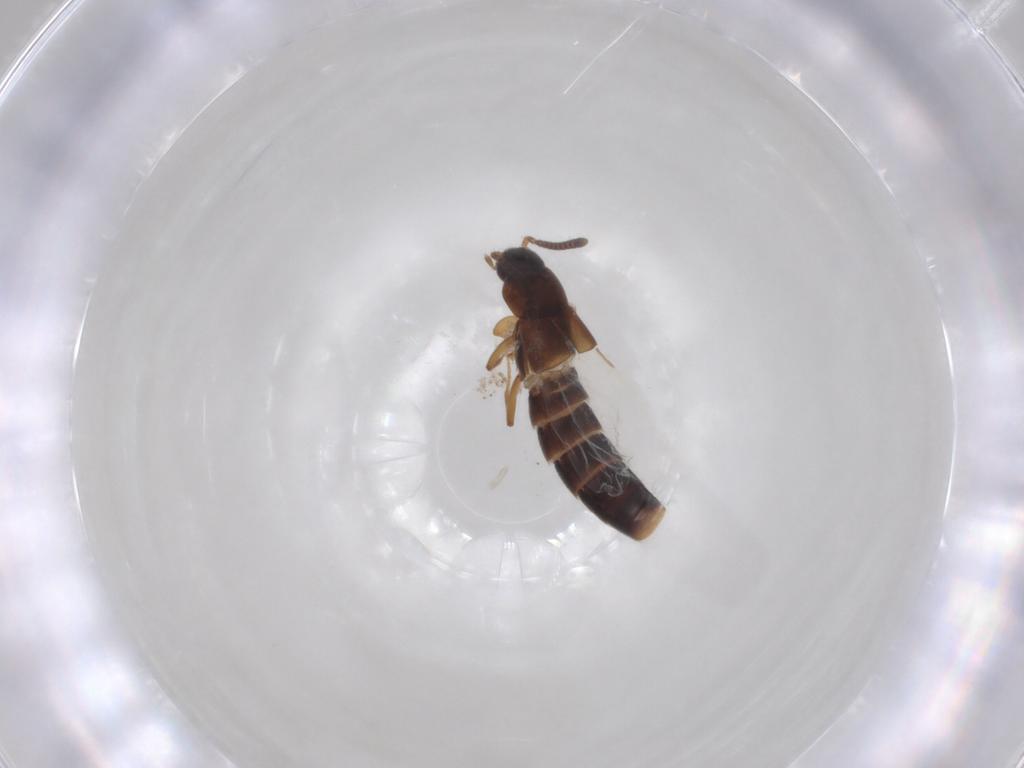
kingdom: Animalia
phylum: Arthropoda
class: Insecta
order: Coleoptera
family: Staphylinidae
